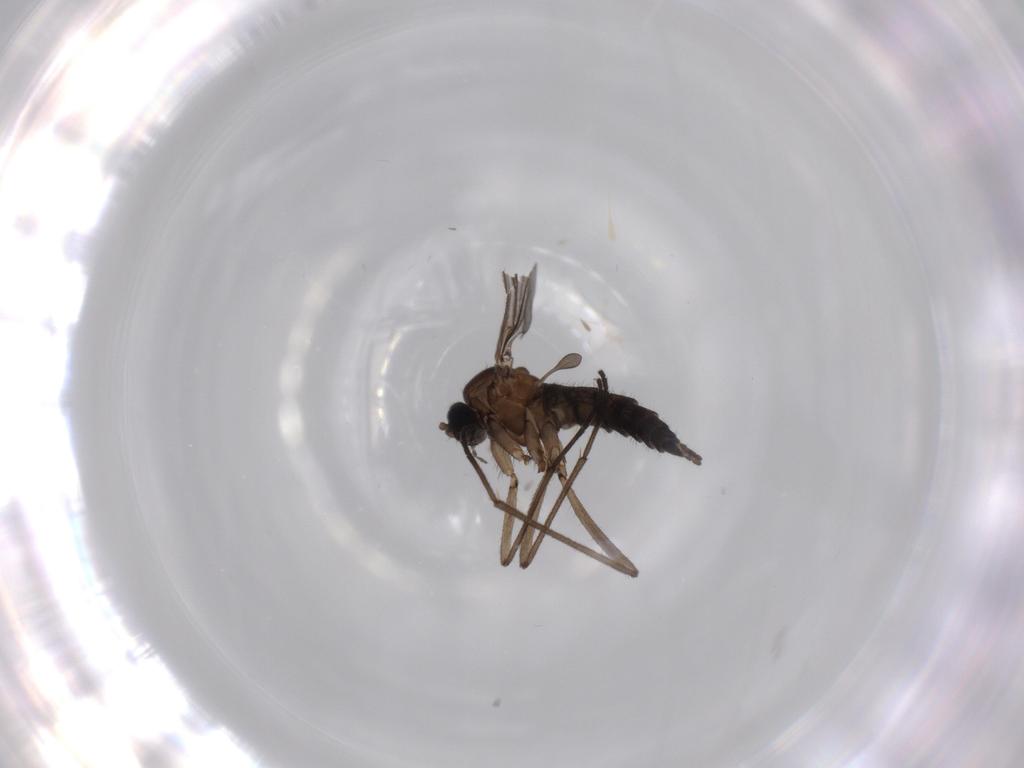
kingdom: Animalia
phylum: Arthropoda
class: Insecta
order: Diptera
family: Sciaridae
